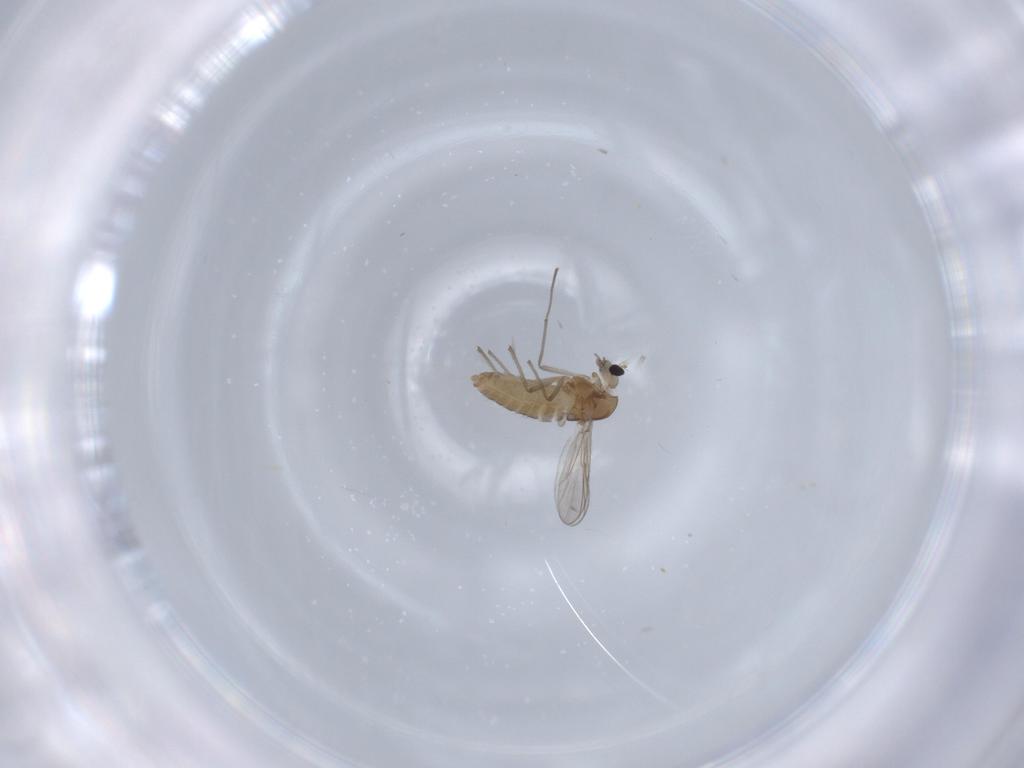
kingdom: Animalia
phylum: Arthropoda
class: Insecta
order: Diptera
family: Chironomidae
